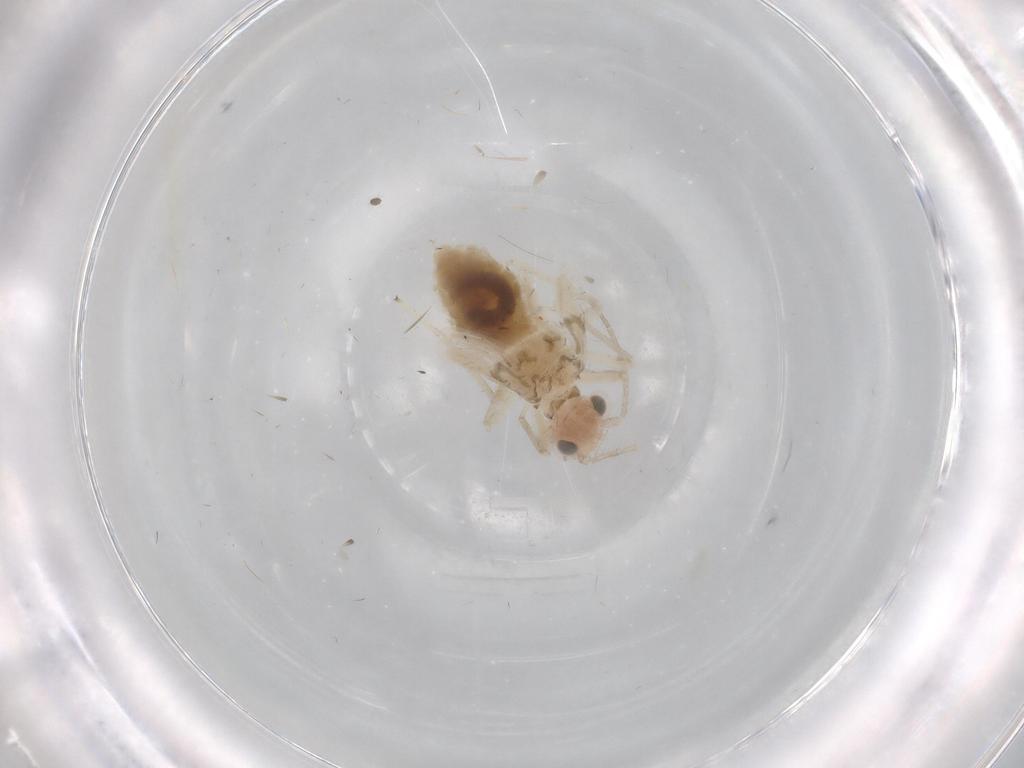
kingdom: Animalia
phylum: Arthropoda
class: Insecta
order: Psocodea
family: Caeciliusidae
